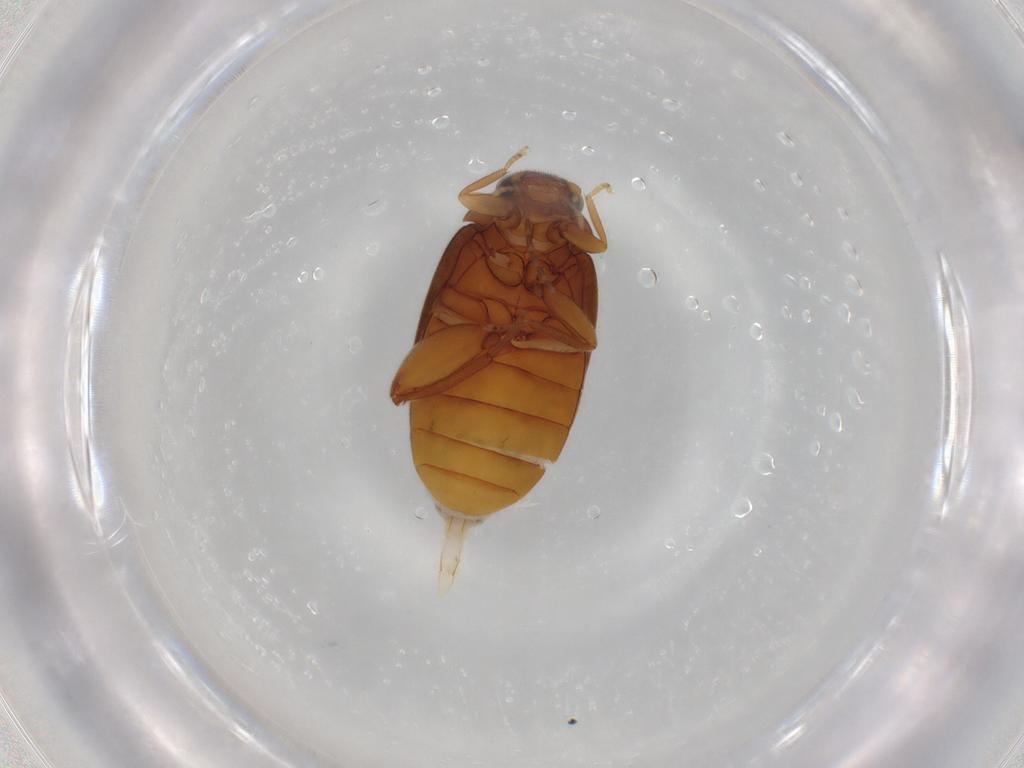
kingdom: Animalia
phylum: Arthropoda
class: Insecta
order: Coleoptera
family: Scirtidae
